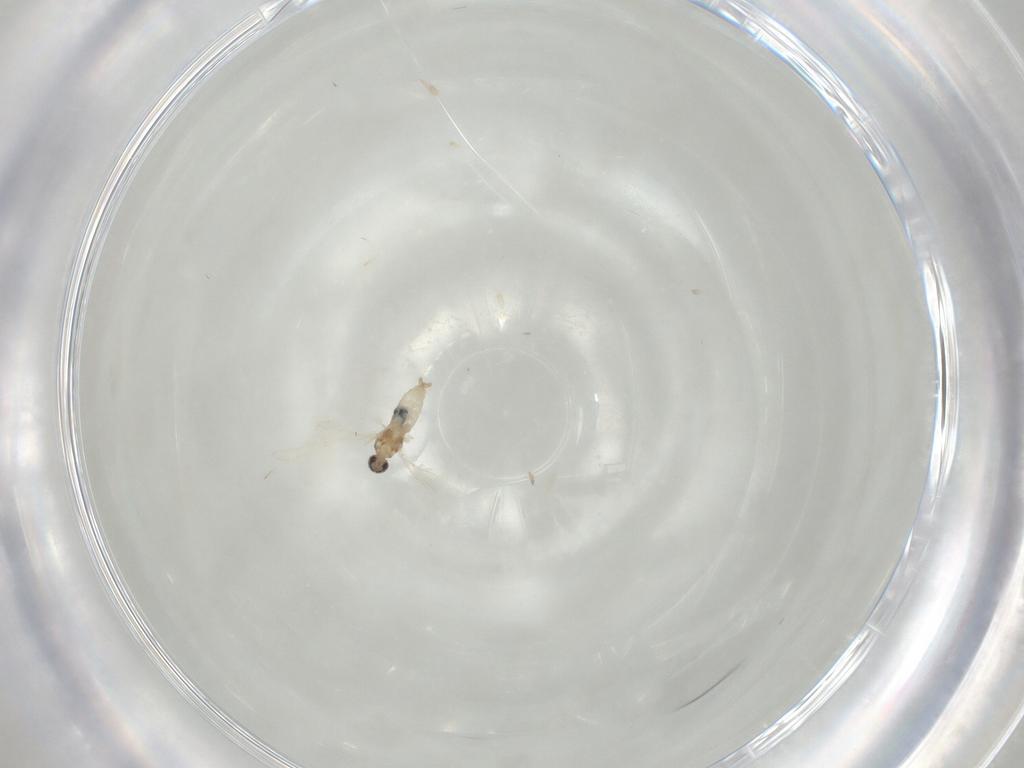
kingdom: Animalia
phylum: Arthropoda
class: Insecta
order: Diptera
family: Cecidomyiidae
